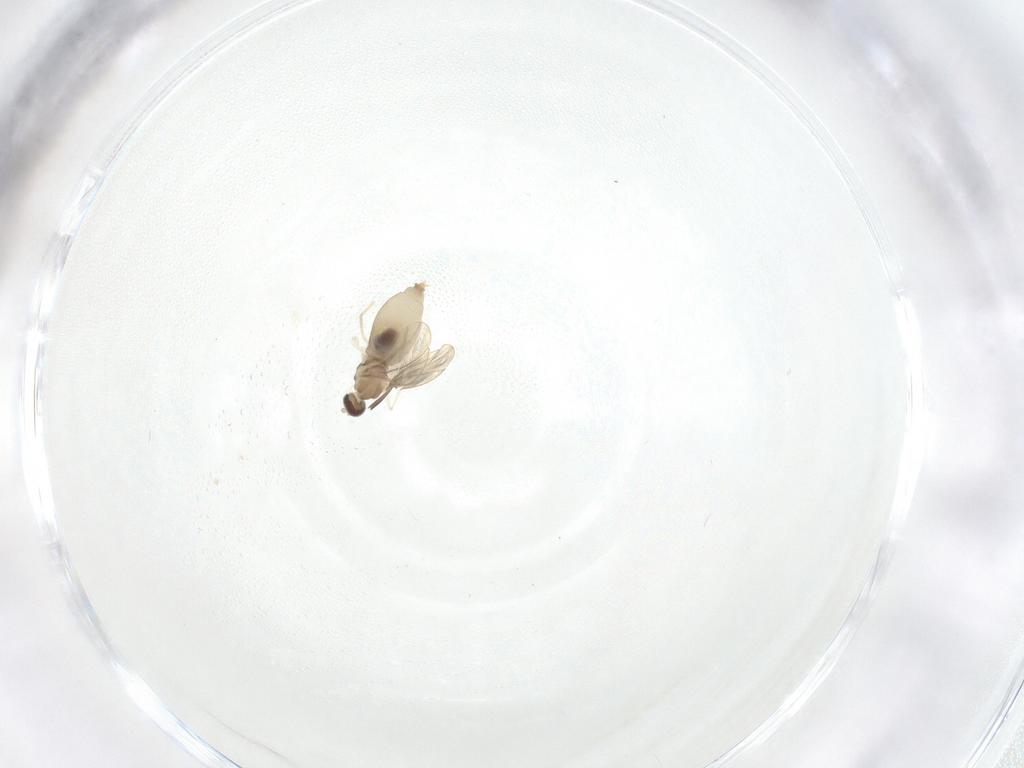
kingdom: Animalia
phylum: Arthropoda
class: Insecta
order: Diptera
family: Cecidomyiidae
